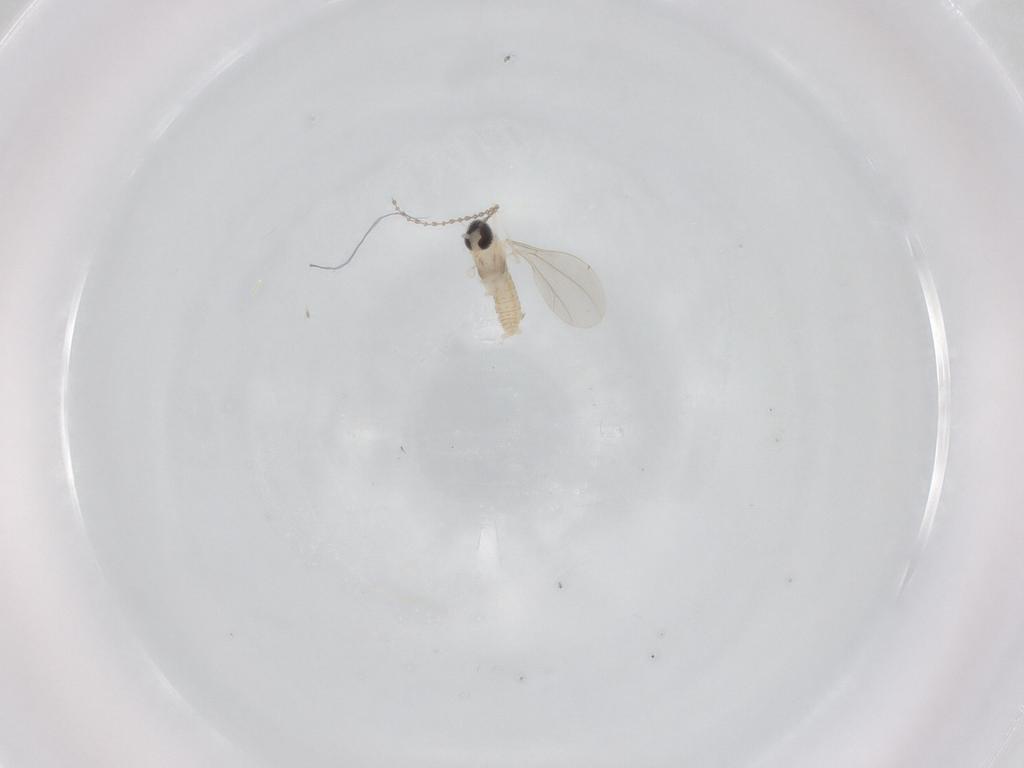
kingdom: Animalia
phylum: Arthropoda
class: Insecta
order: Diptera
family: Cecidomyiidae
